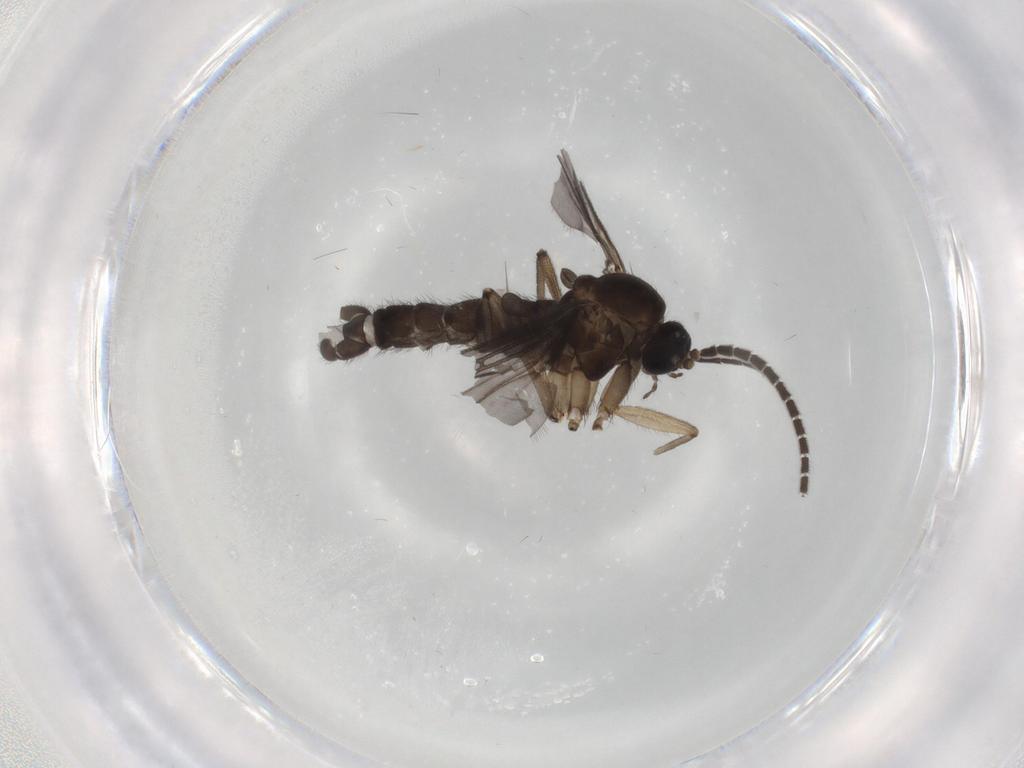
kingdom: Animalia
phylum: Arthropoda
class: Insecta
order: Diptera
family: Sciaridae
